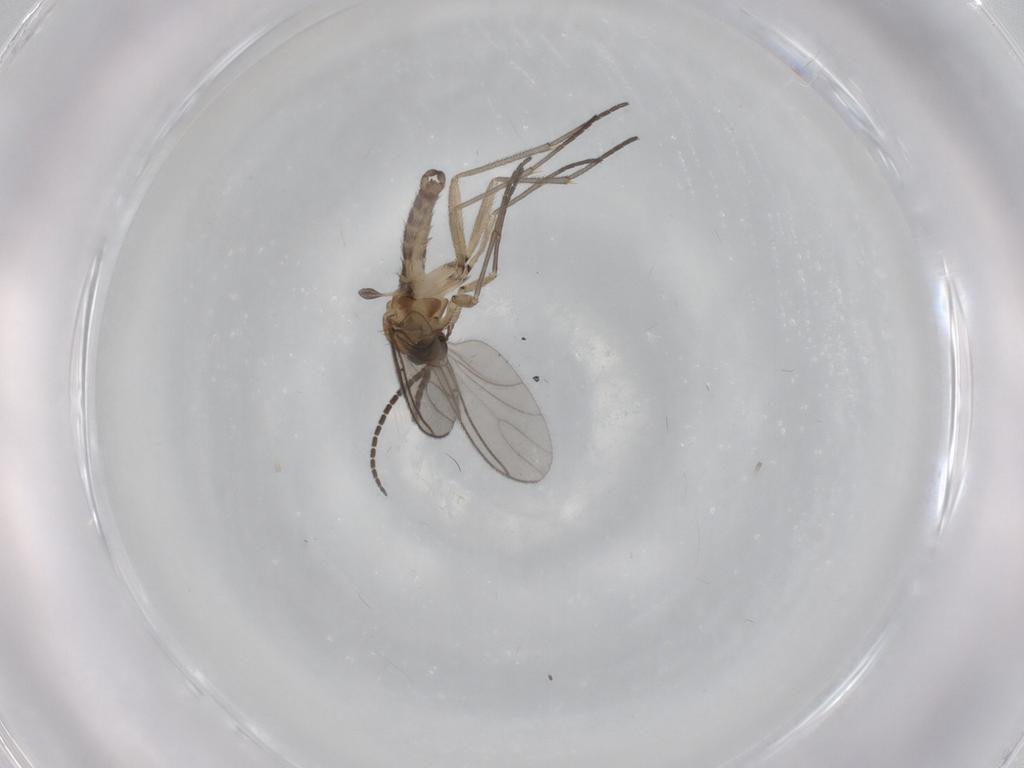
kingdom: Animalia
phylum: Arthropoda
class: Insecta
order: Diptera
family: Sciaridae
